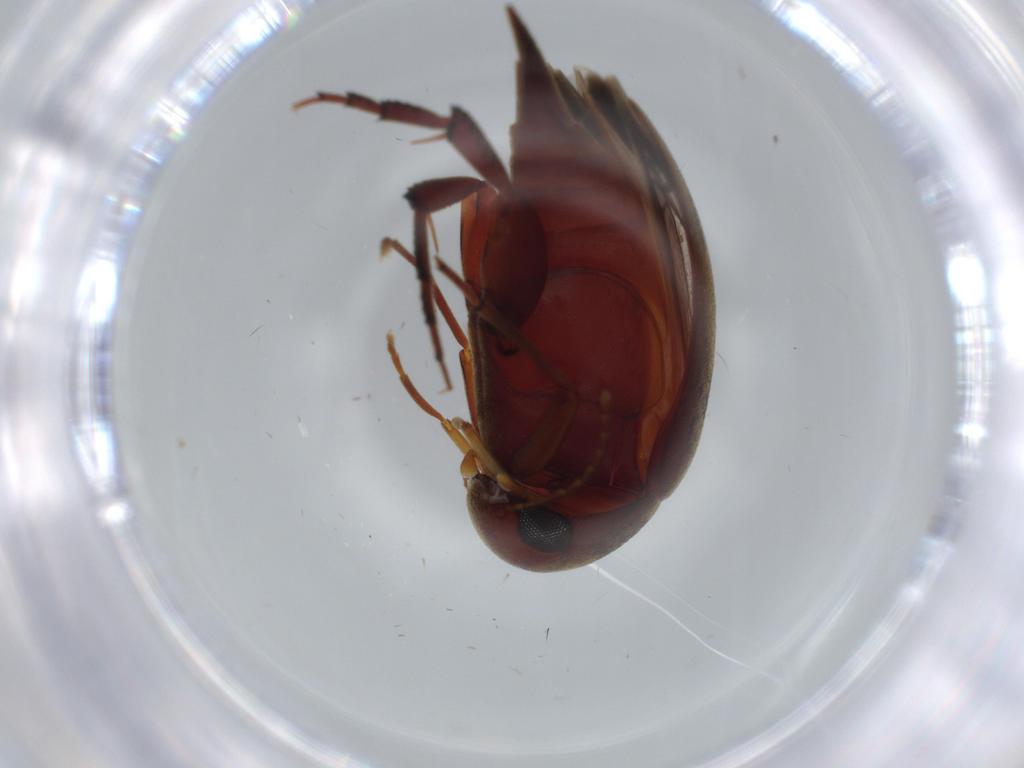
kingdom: Animalia
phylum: Arthropoda
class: Insecta
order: Coleoptera
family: Chrysomelidae
